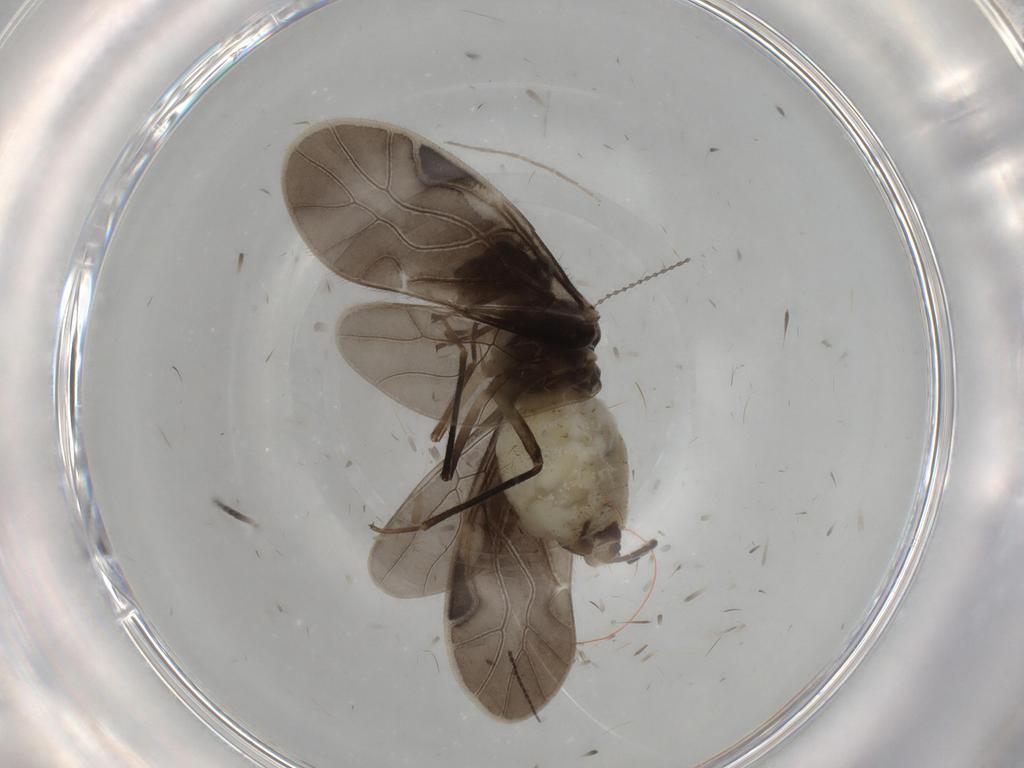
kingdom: Animalia
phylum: Arthropoda
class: Insecta
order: Psocodea
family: Caeciliusidae
